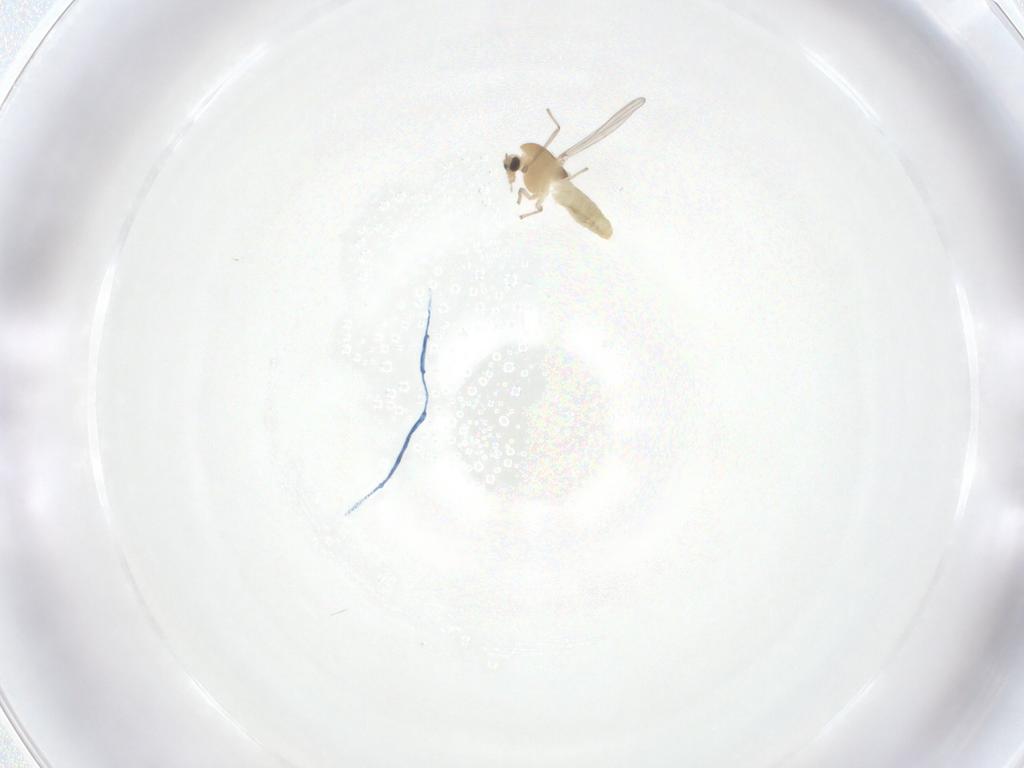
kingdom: Animalia
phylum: Arthropoda
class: Insecta
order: Diptera
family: Chironomidae
